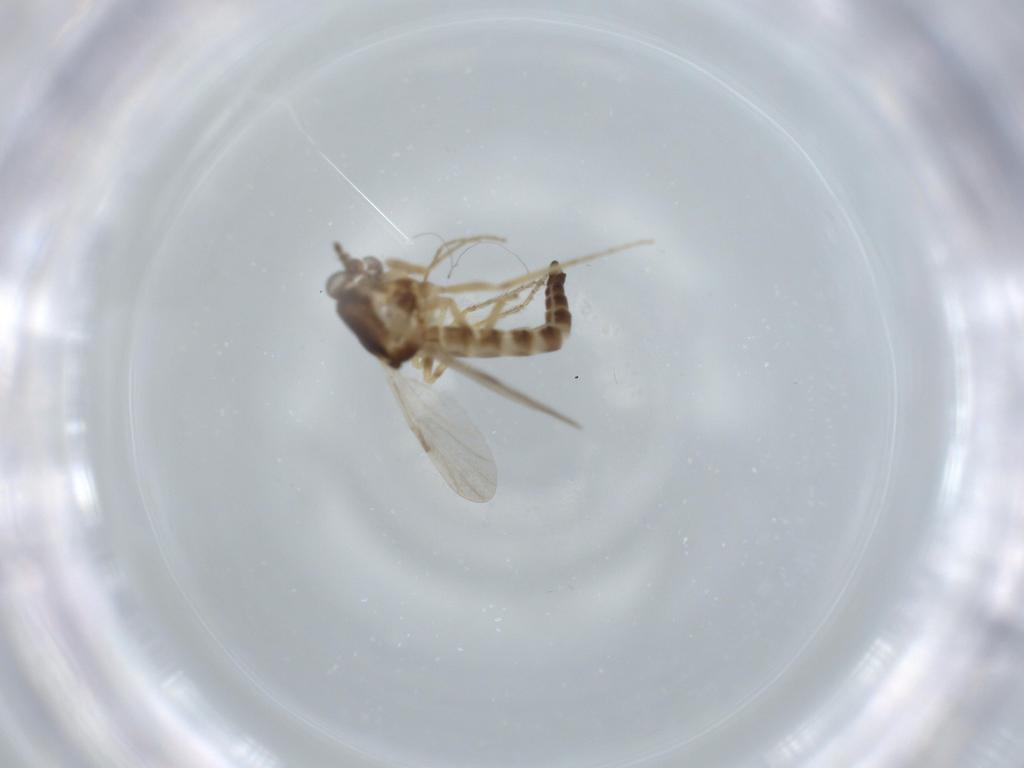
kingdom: Animalia
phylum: Arthropoda
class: Insecta
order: Diptera
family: Ceratopogonidae
